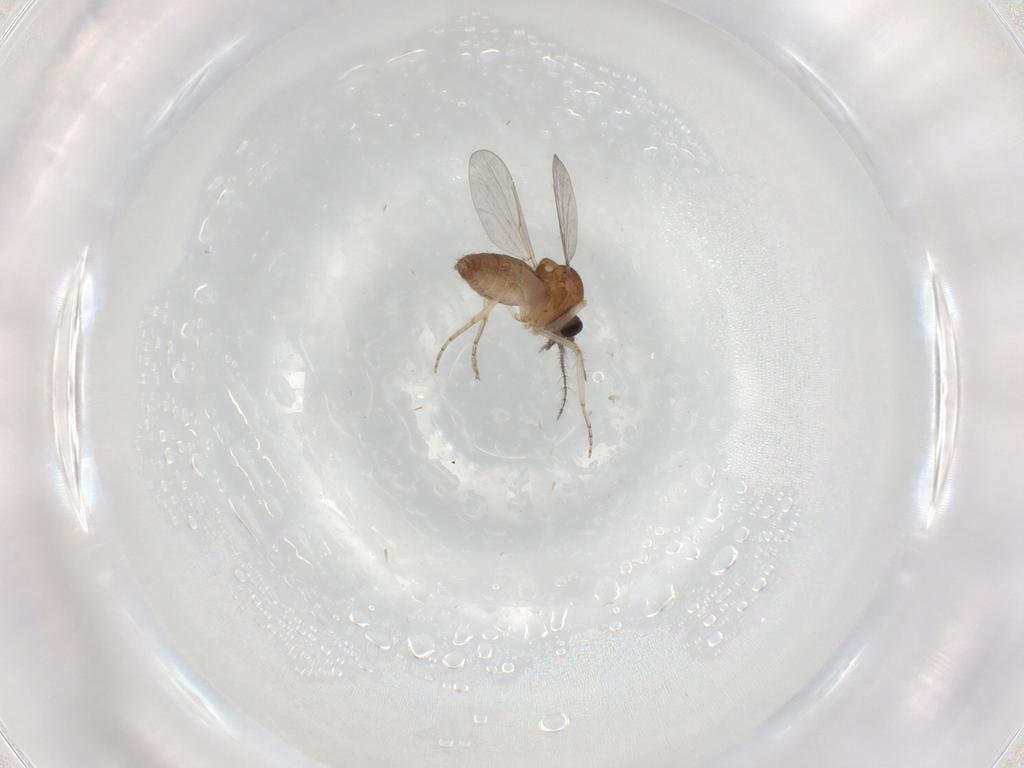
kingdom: Animalia
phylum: Arthropoda
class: Insecta
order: Diptera
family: Ceratopogonidae
